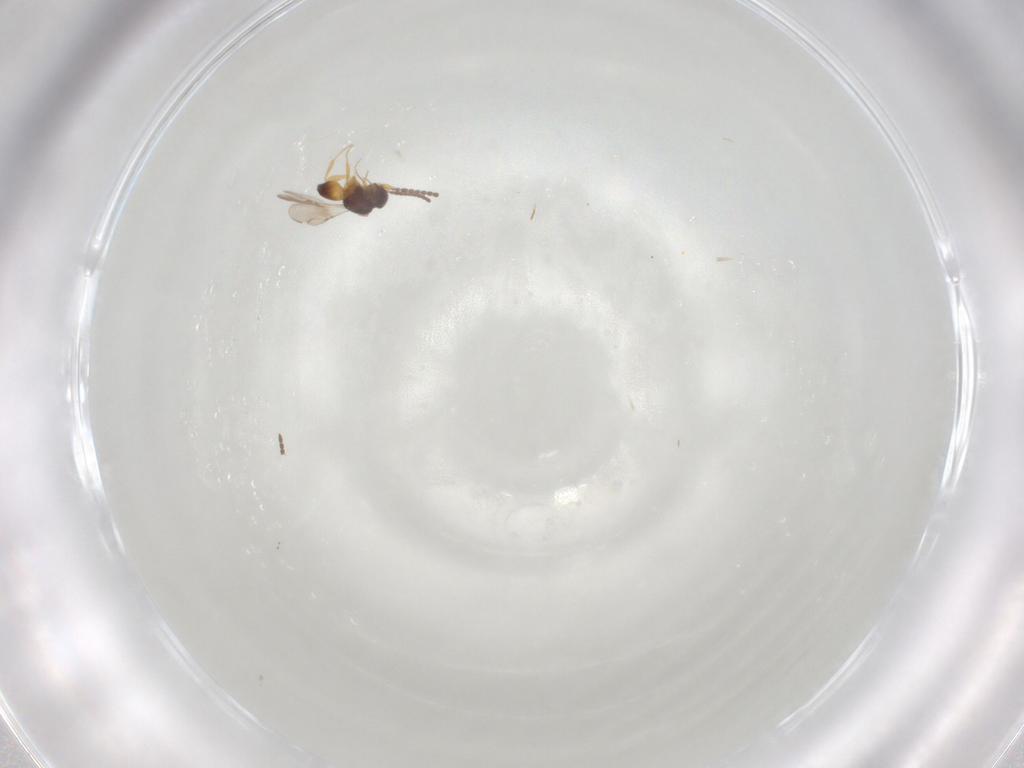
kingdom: Animalia
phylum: Arthropoda
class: Insecta
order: Hymenoptera
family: Ceraphronidae
